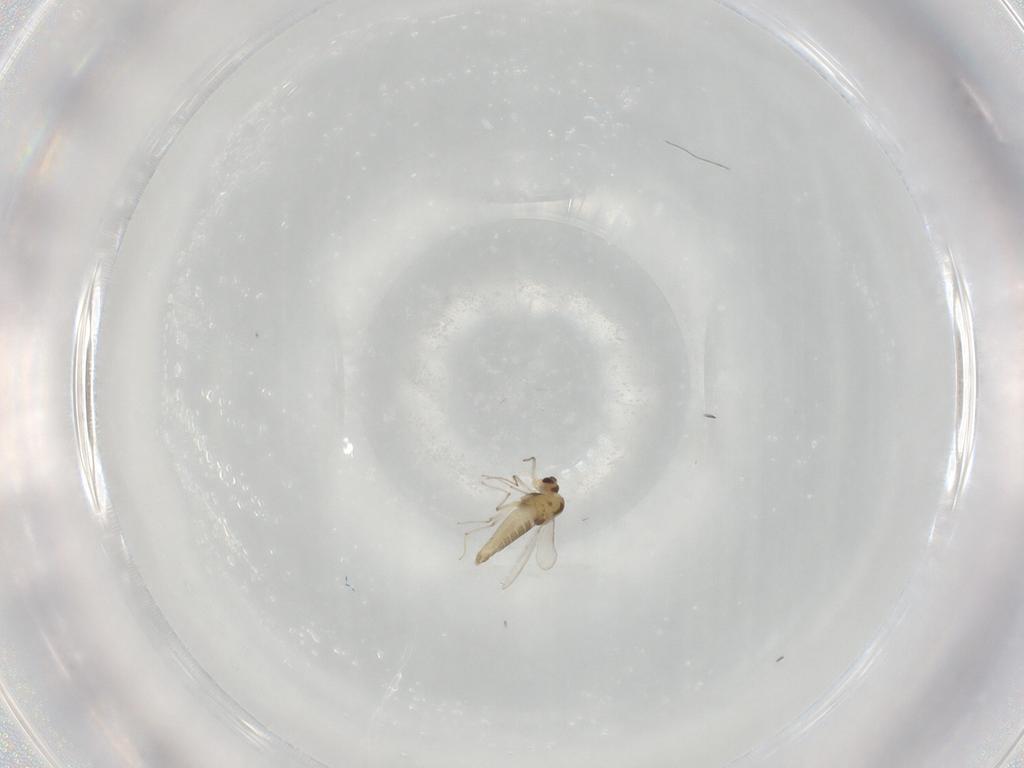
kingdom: Animalia
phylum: Arthropoda
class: Insecta
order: Diptera
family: Chironomidae
